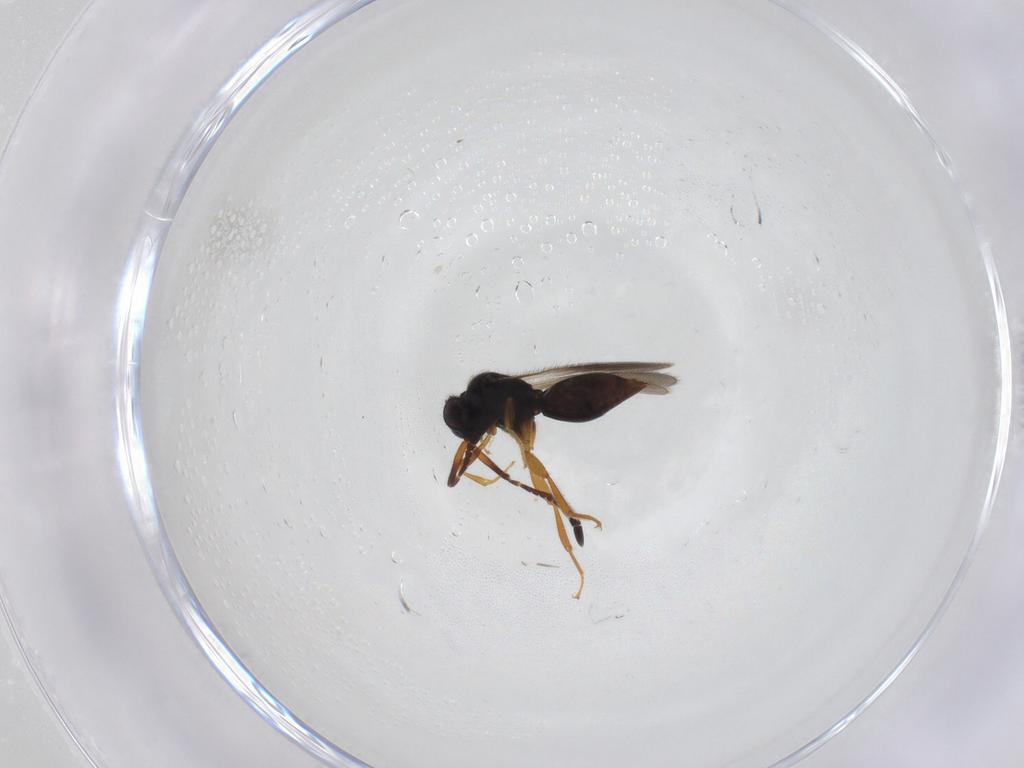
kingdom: Animalia
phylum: Arthropoda
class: Insecta
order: Hymenoptera
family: Ceraphronidae
